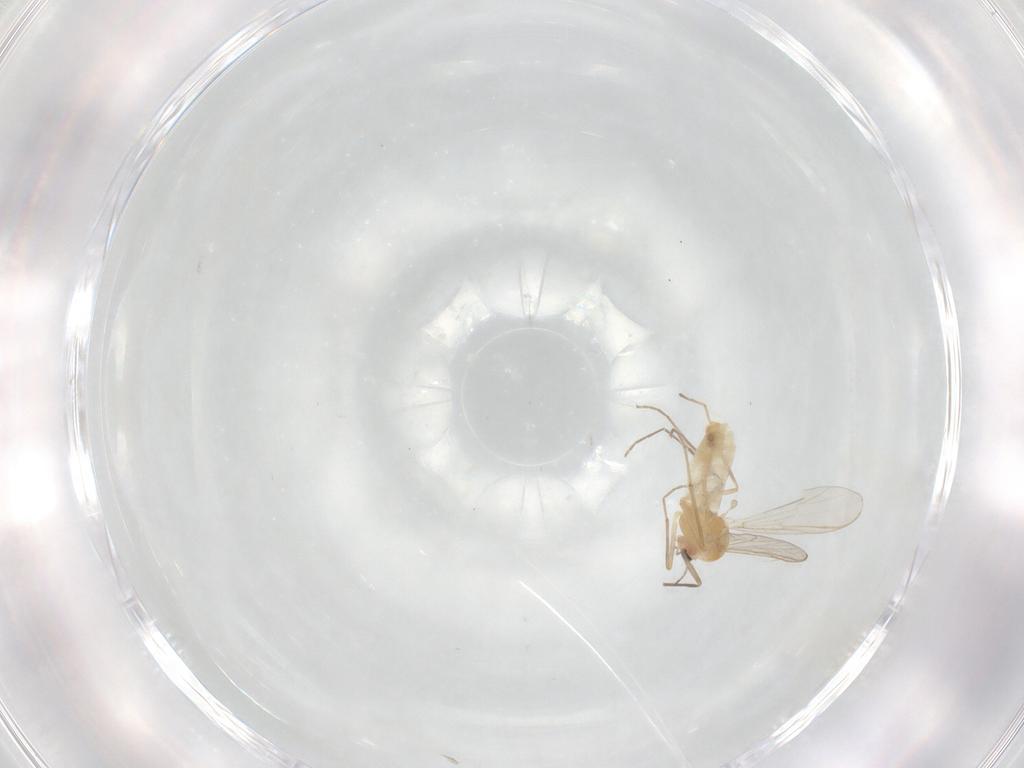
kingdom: Animalia
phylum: Arthropoda
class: Insecta
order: Diptera
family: Chironomidae
